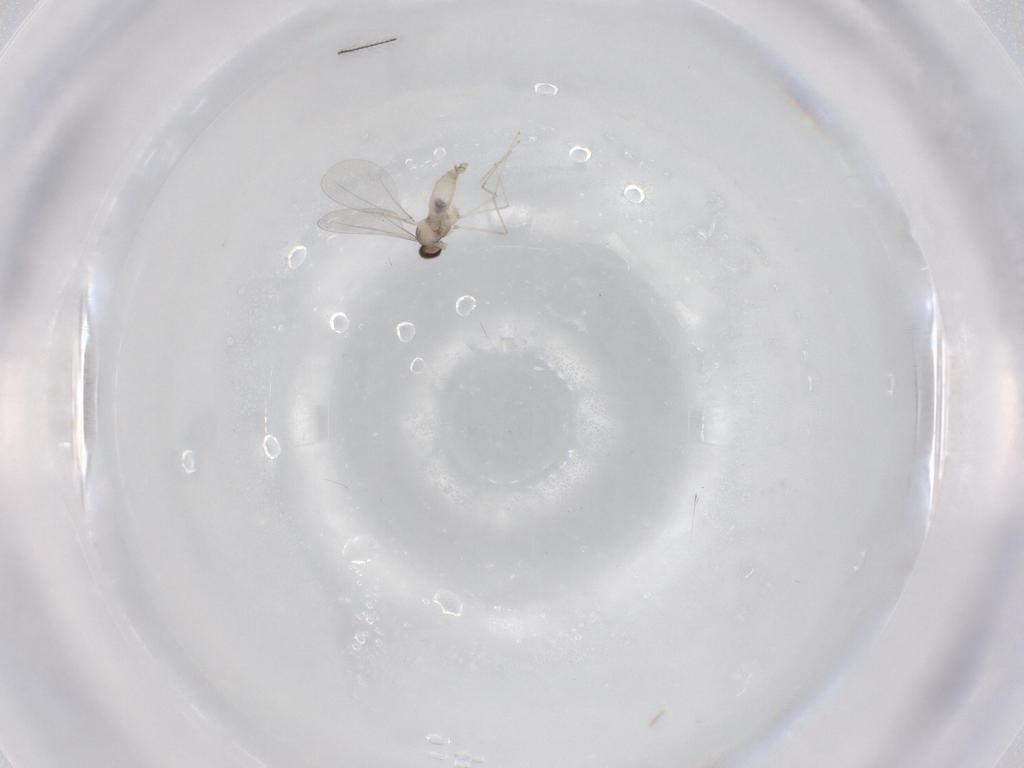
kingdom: Animalia
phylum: Arthropoda
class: Insecta
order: Diptera
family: Ceratopogonidae
